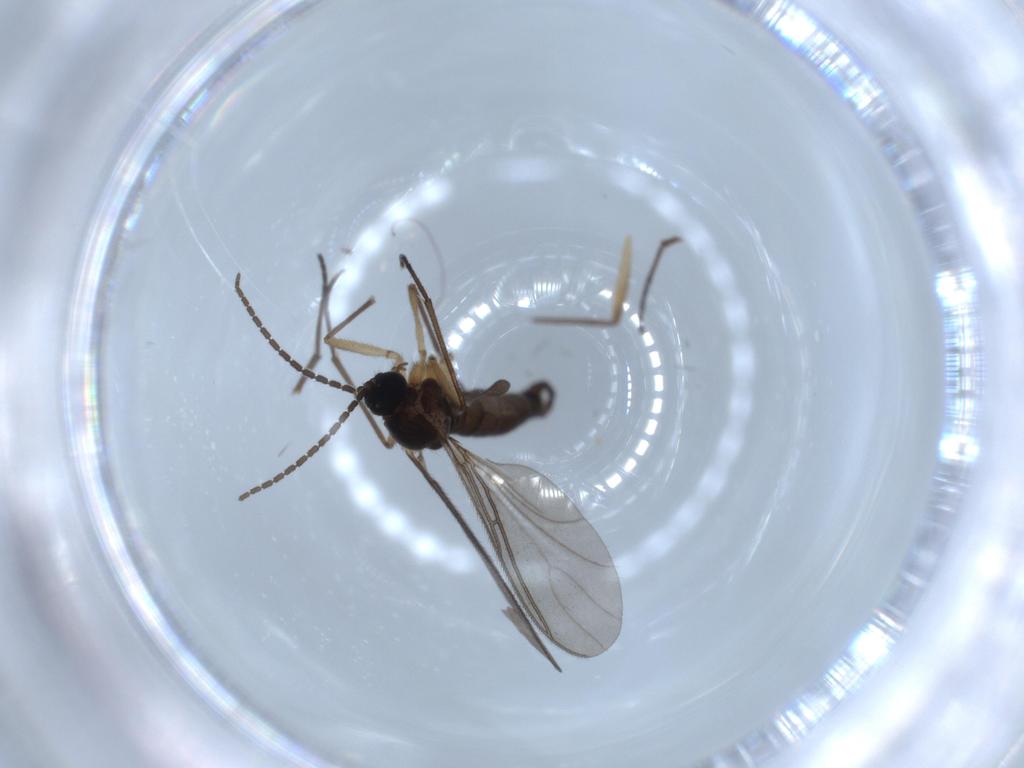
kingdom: Animalia
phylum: Arthropoda
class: Insecta
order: Diptera
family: Sciaridae
